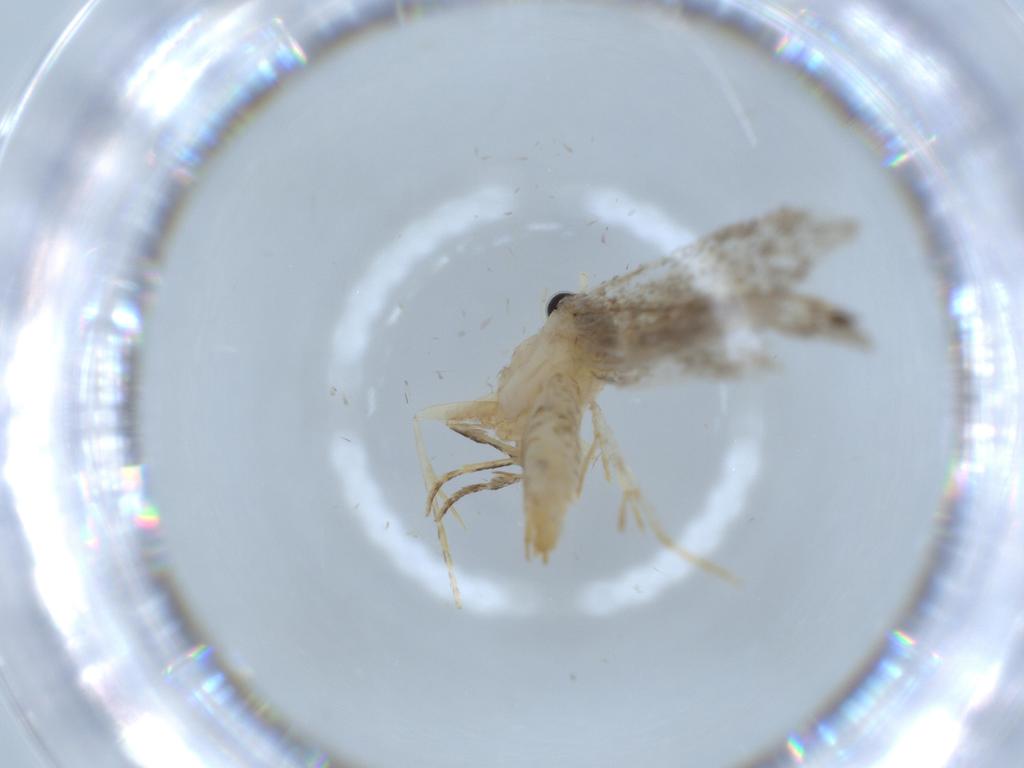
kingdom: Animalia
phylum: Arthropoda
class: Insecta
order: Lepidoptera
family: Tineidae
